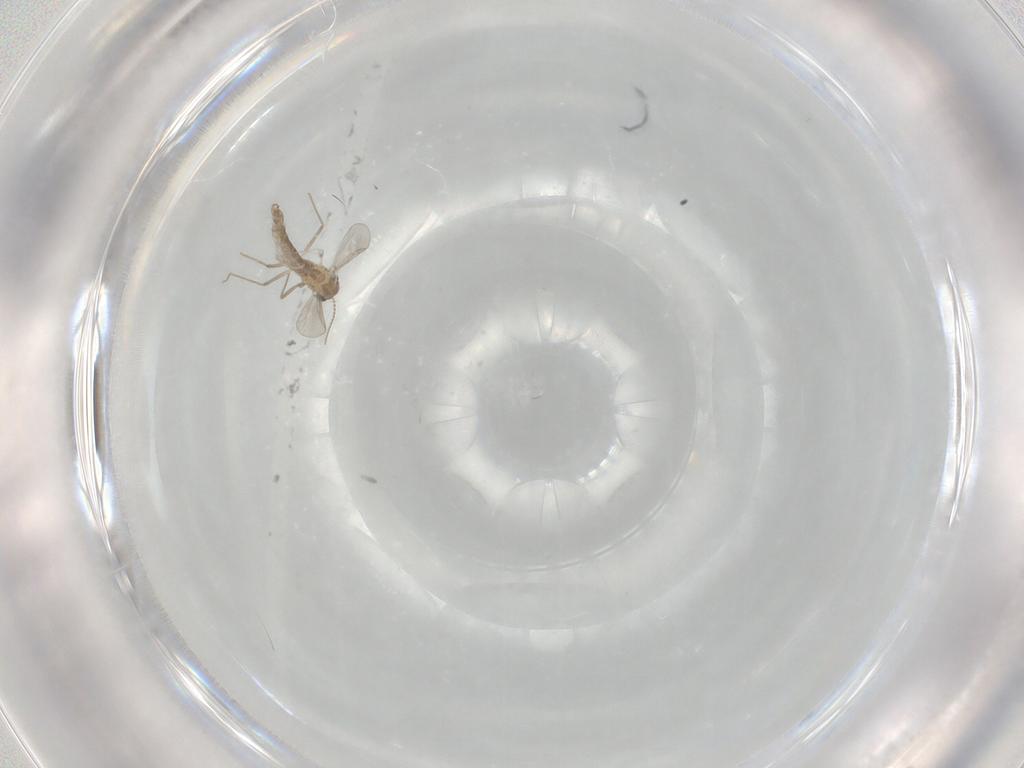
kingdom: Animalia
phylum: Arthropoda
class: Insecta
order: Diptera
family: Chironomidae
